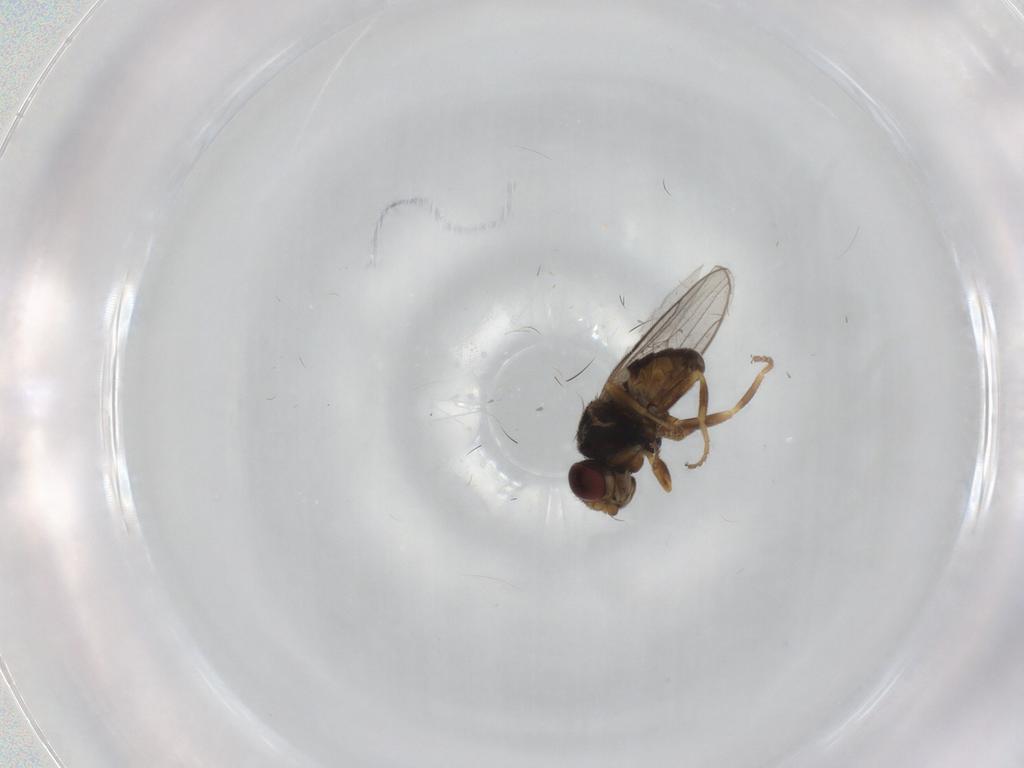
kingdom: Animalia
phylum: Arthropoda
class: Insecta
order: Diptera
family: Chloropidae
